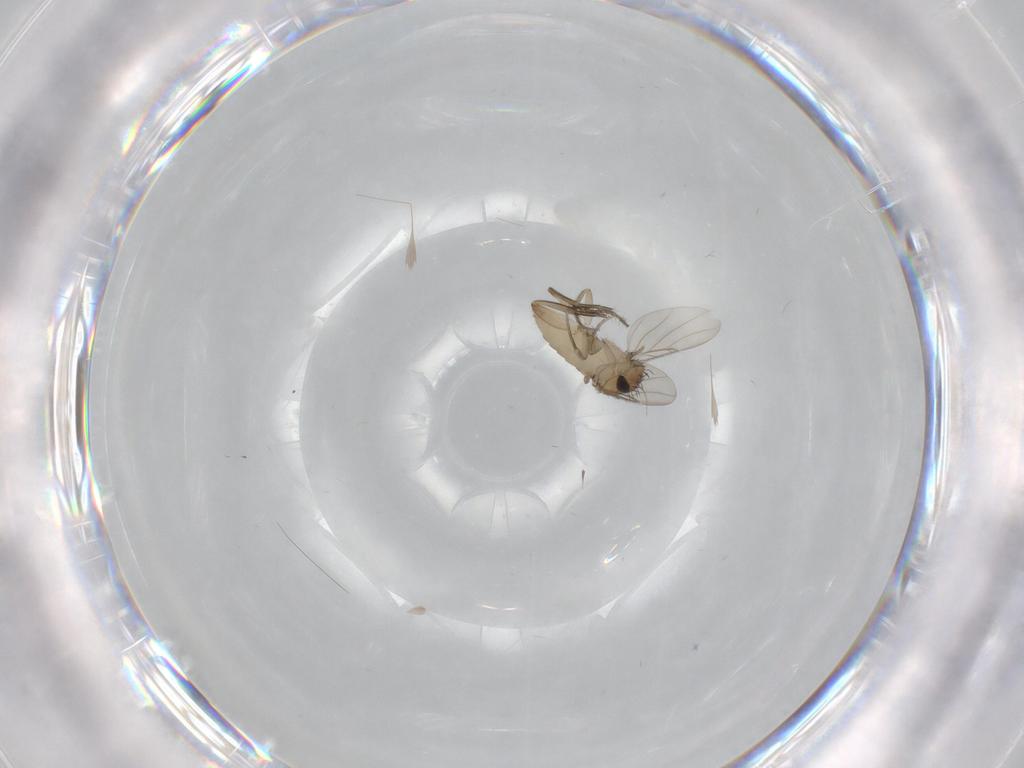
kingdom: Animalia
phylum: Arthropoda
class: Insecta
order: Diptera
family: Phoridae
